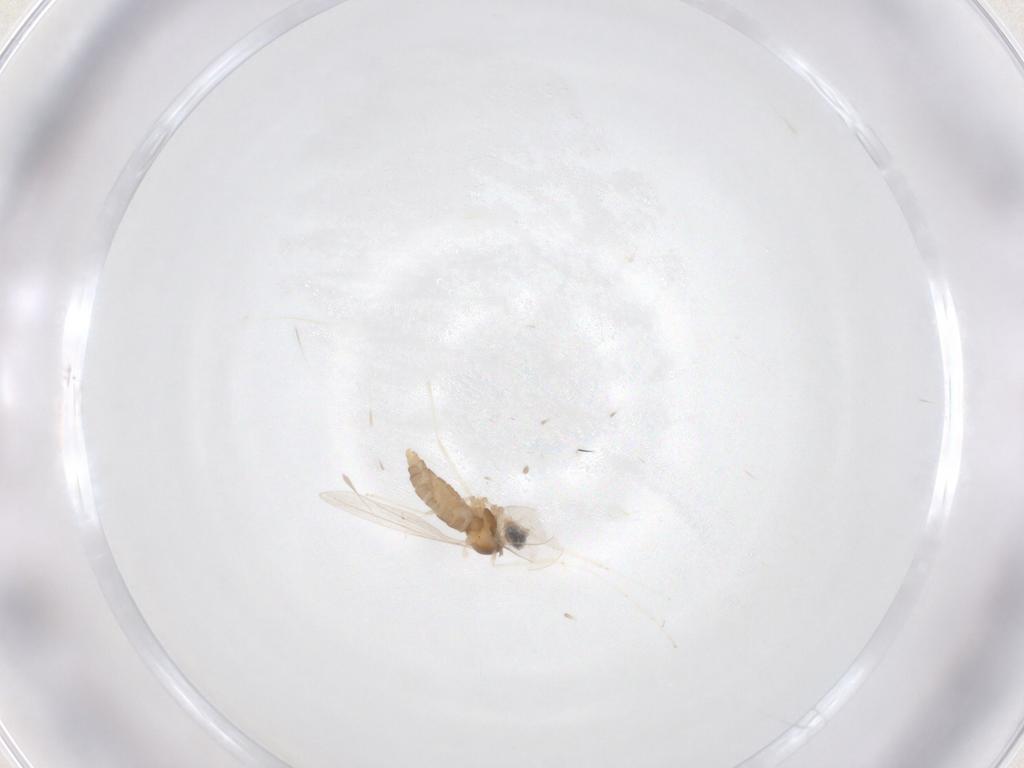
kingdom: Animalia
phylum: Arthropoda
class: Insecta
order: Diptera
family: Cecidomyiidae
